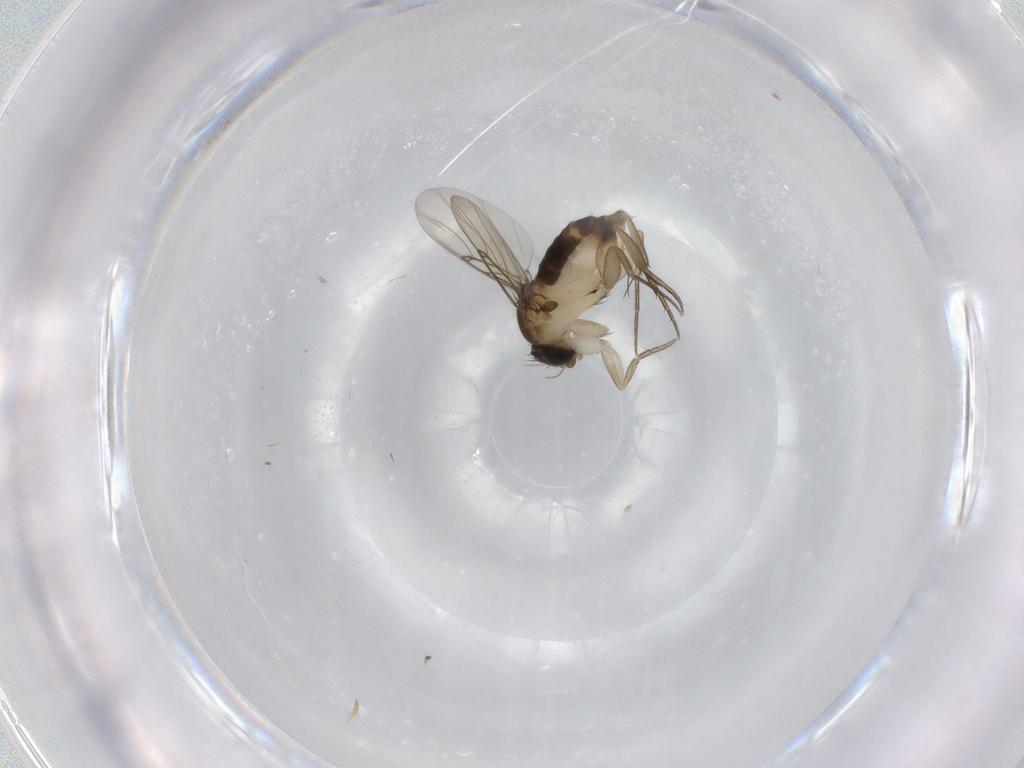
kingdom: Animalia
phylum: Arthropoda
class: Insecta
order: Diptera
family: Phoridae
